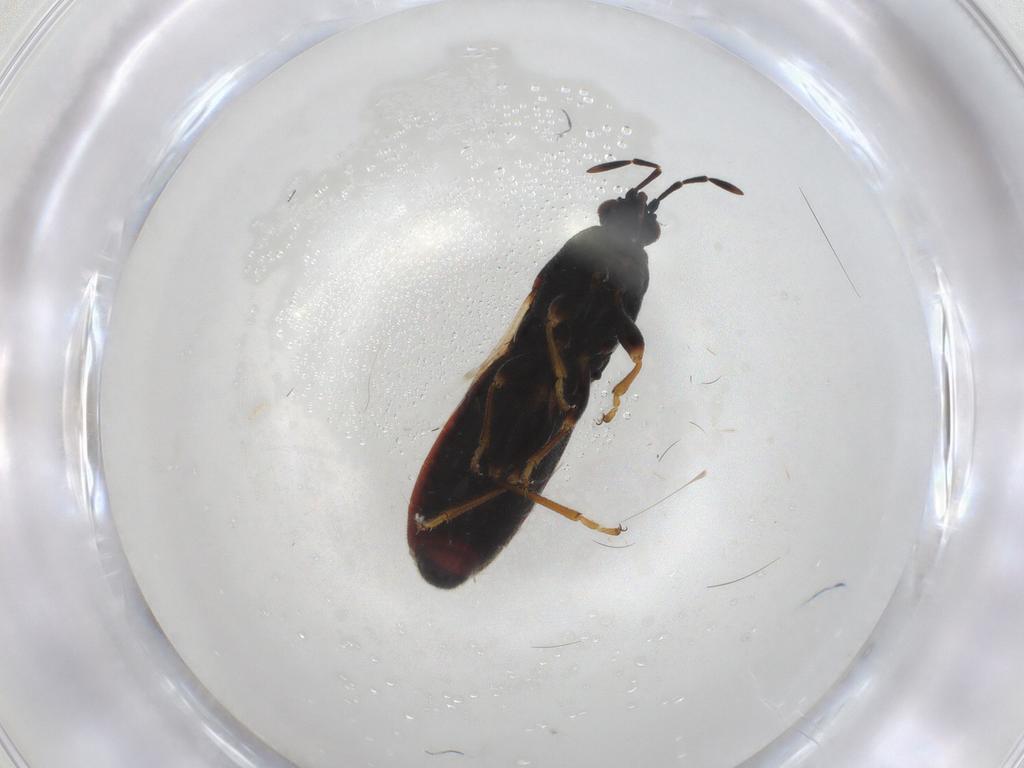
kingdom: Animalia
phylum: Arthropoda
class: Insecta
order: Hemiptera
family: Blissidae
